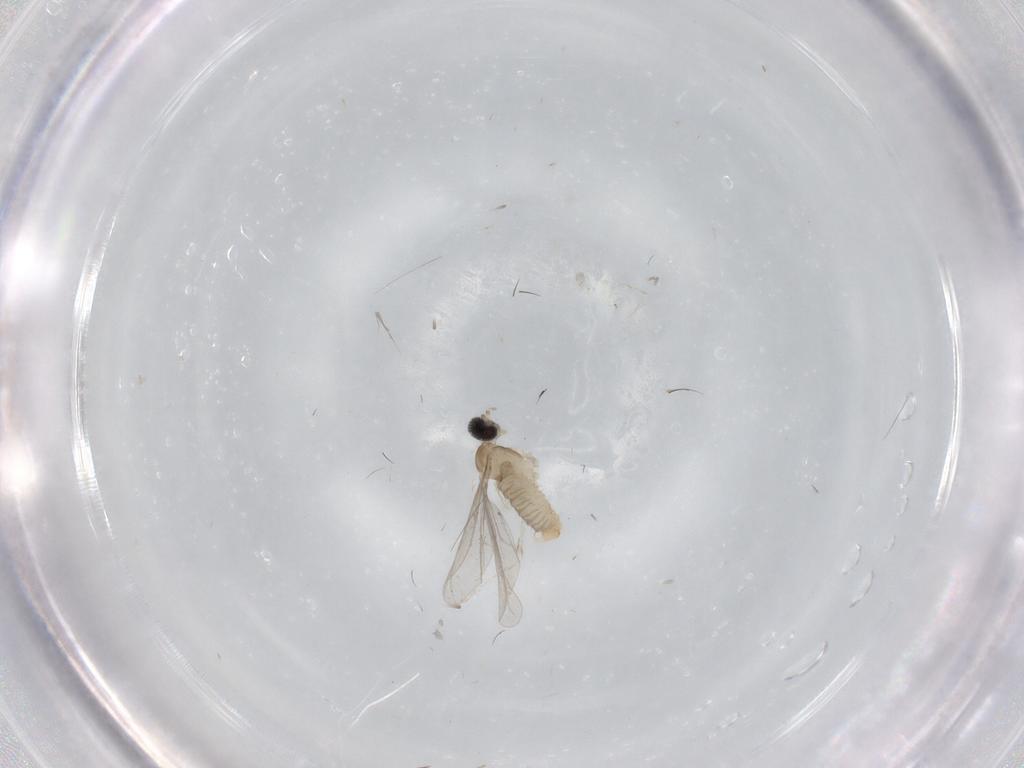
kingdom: Animalia
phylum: Arthropoda
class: Insecta
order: Diptera
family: Cecidomyiidae
